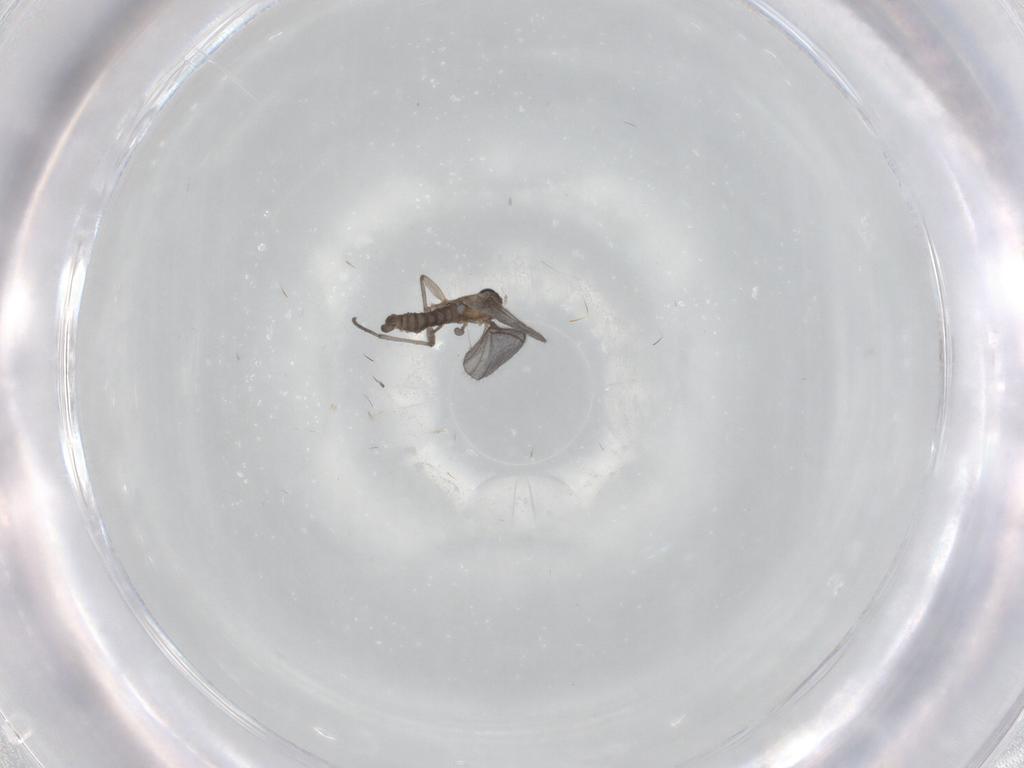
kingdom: Animalia
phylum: Arthropoda
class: Insecta
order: Diptera
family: Sciaridae
